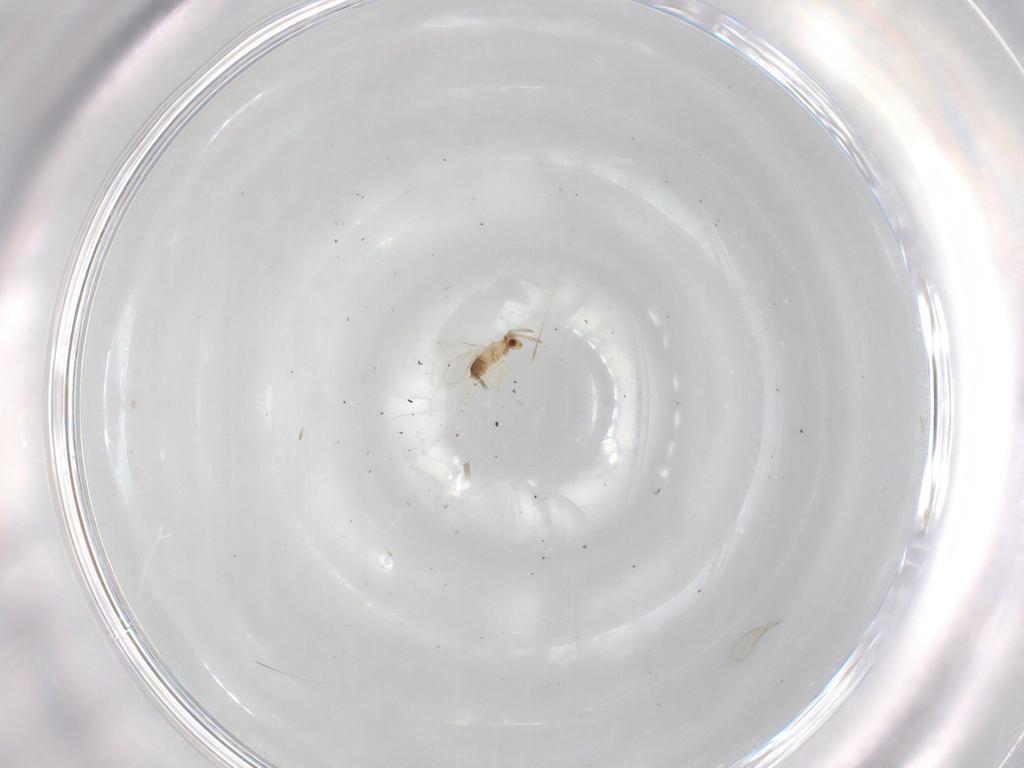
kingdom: Animalia
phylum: Arthropoda
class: Insecta
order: Hymenoptera
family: Aphelinidae
